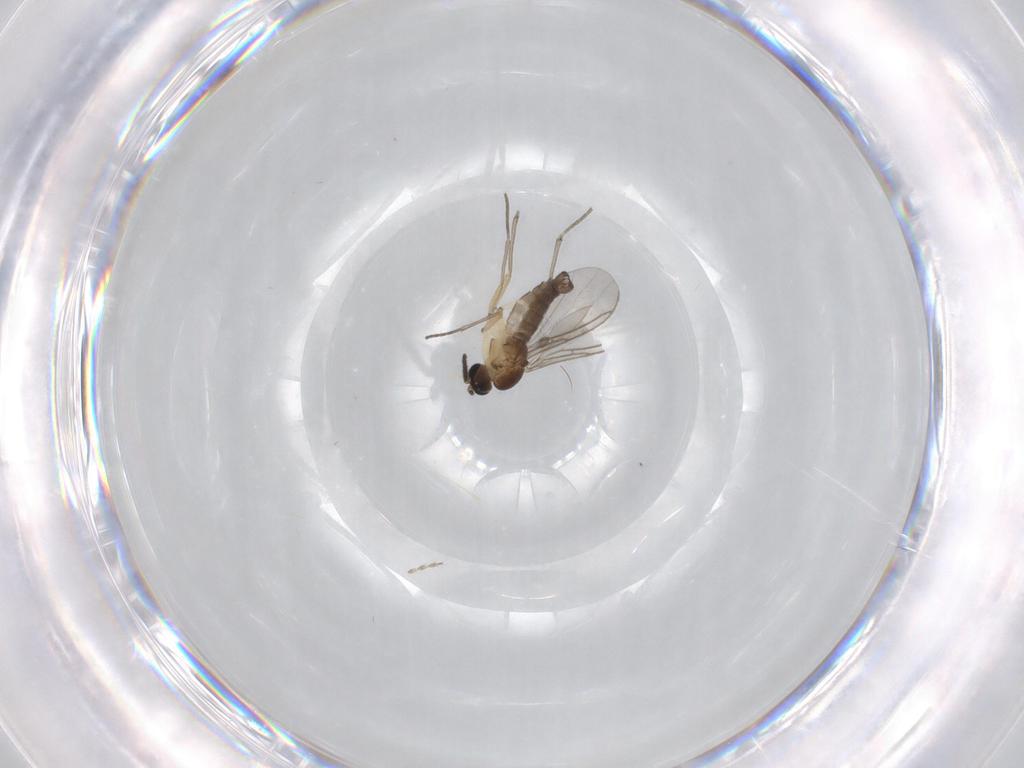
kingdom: Animalia
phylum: Arthropoda
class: Insecta
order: Diptera
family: Sciaridae
